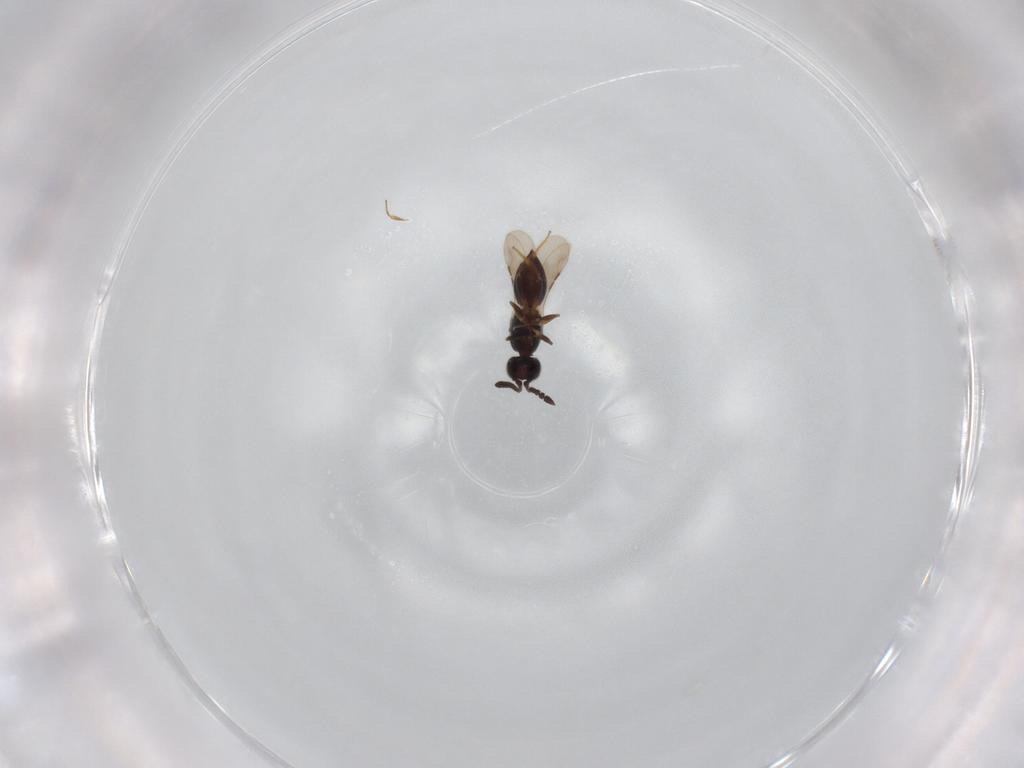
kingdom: Animalia
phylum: Arthropoda
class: Insecta
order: Hymenoptera
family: Ceraphronidae
